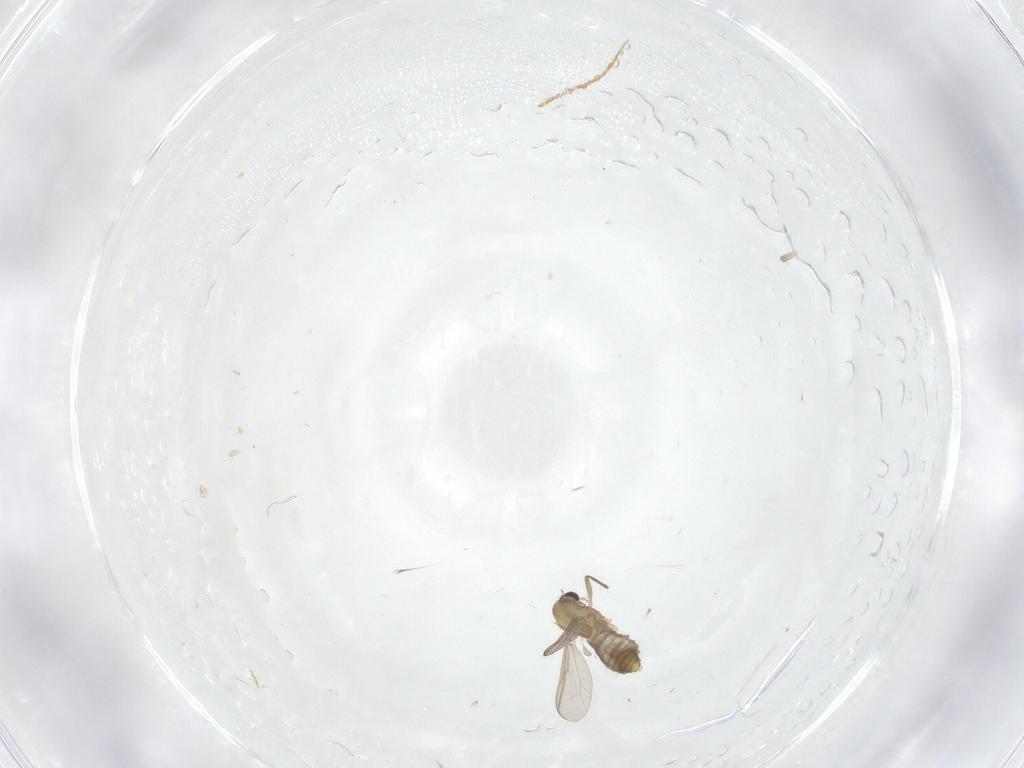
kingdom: Animalia
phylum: Arthropoda
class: Insecta
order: Diptera
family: Chironomidae
